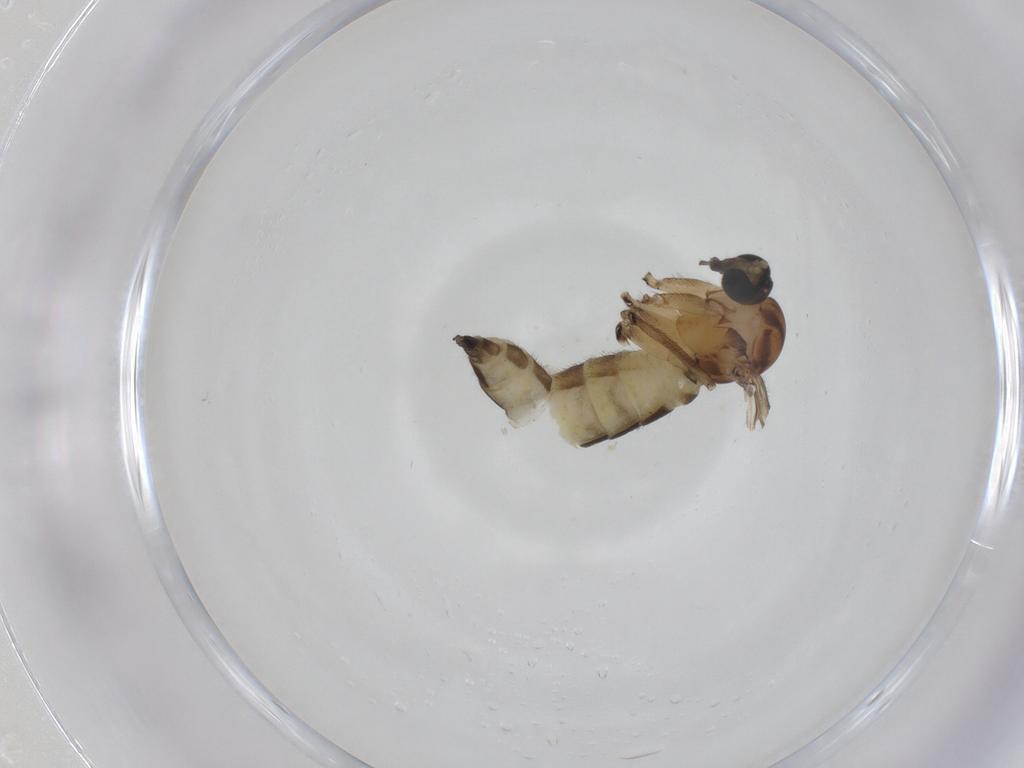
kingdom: Animalia
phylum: Arthropoda
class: Insecta
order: Diptera
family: Sciaridae
